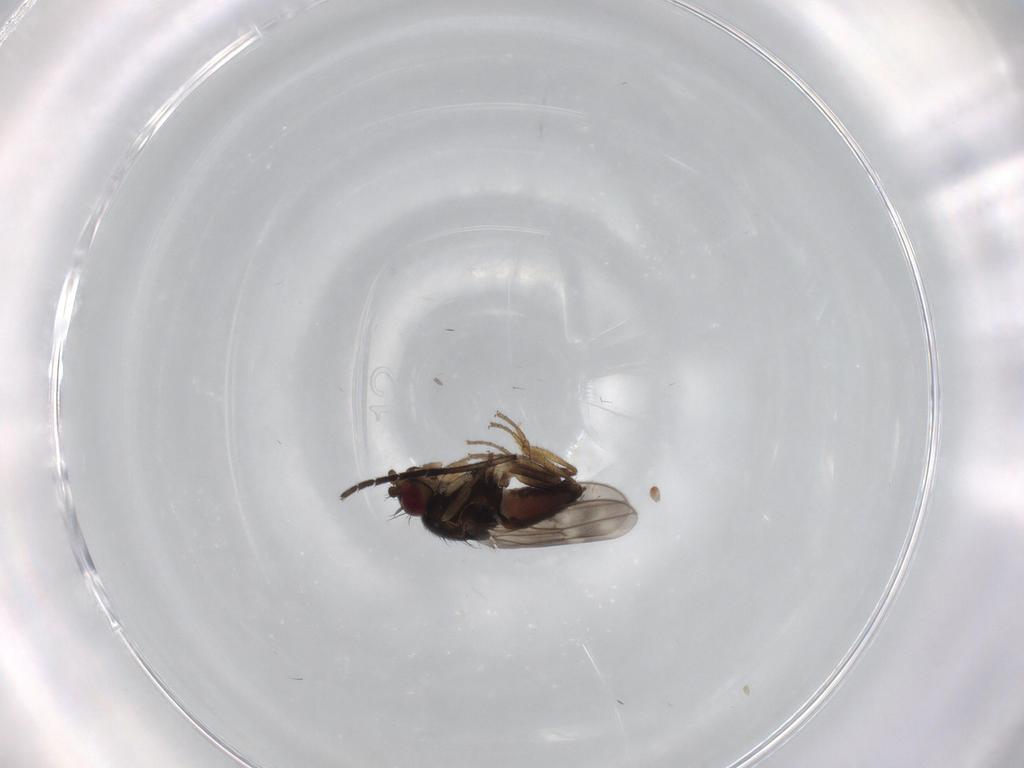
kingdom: Animalia
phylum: Arthropoda
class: Insecta
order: Diptera
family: Sphaeroceridae
